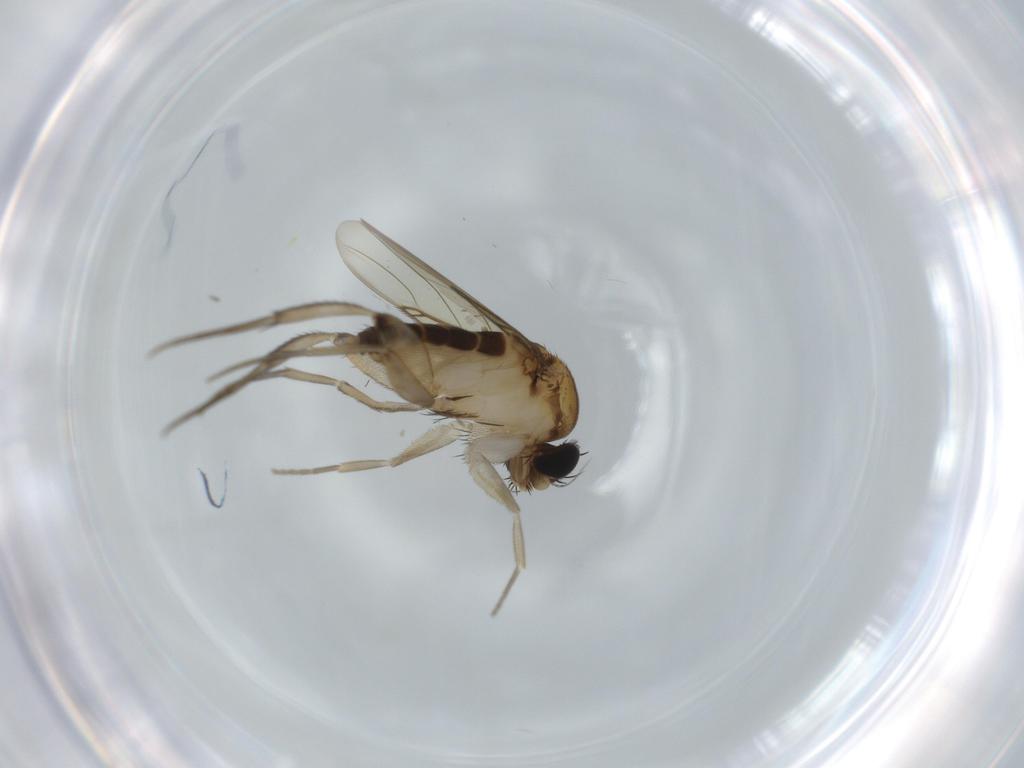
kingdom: Animalia
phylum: Arthropoda
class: Insecta
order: Diptera
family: Phoridae
